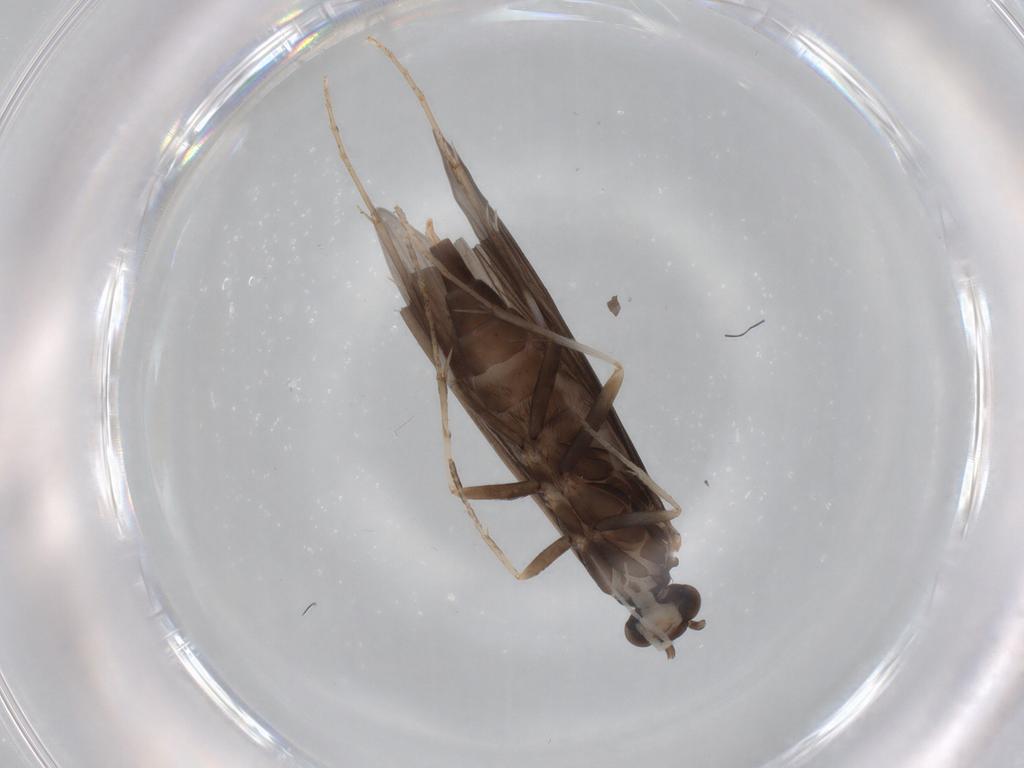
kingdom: Animalia
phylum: Arthropoda
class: Insecta
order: Trichoptera
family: Xiphocentronidae
